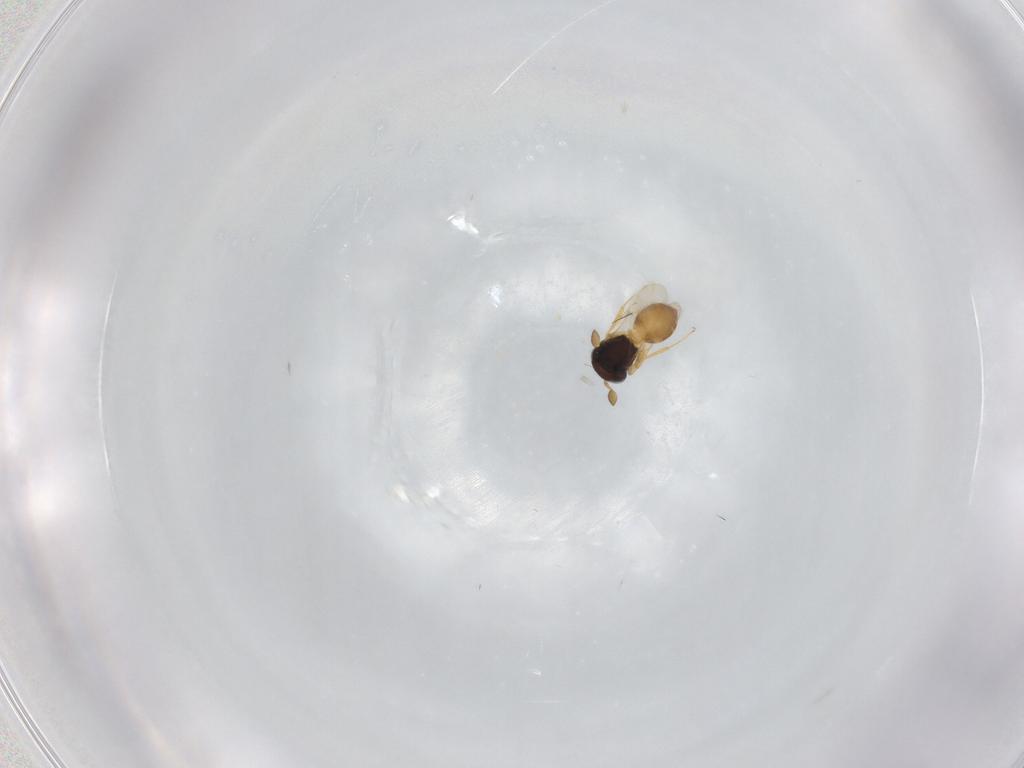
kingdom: Animalia
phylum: Arthropoda
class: Insecta
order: Hymenoptera
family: Scelionidae
